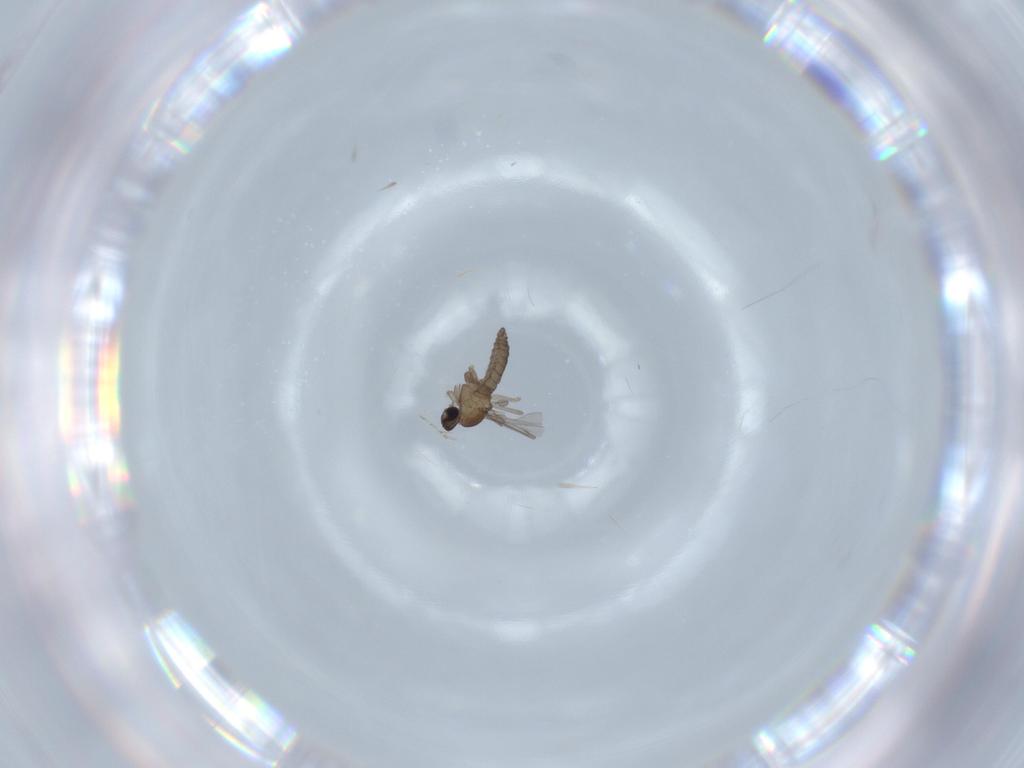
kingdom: Animalia
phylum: Arthropoda
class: Insecta
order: Diptera
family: Cecidomyiidae
